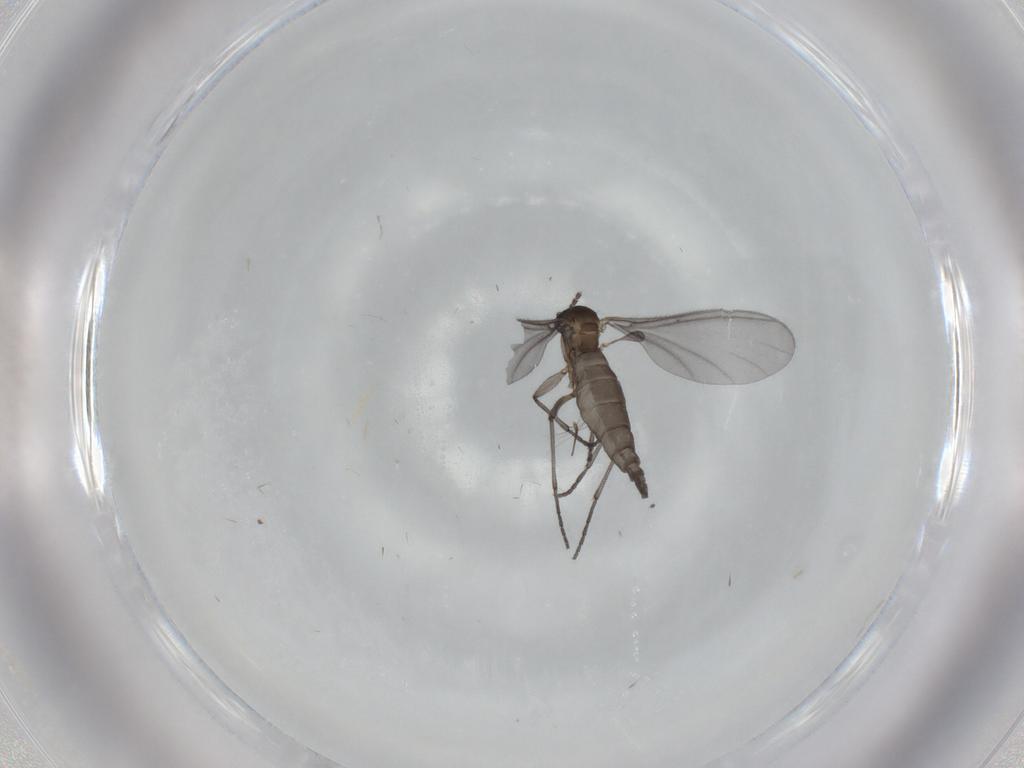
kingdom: Animalia
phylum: Arthropoda
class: Insecta
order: Diptera
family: Sciaridae
